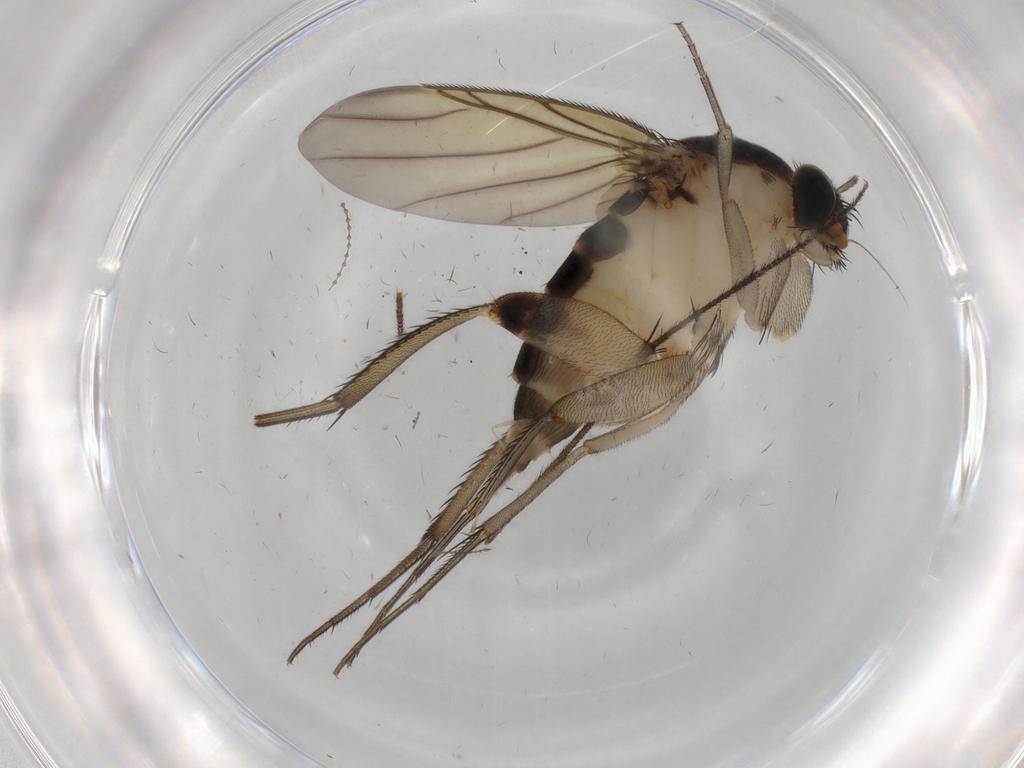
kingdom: Animalia
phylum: Arthropoda
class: Insecta
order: Diptera
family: Phoridae
